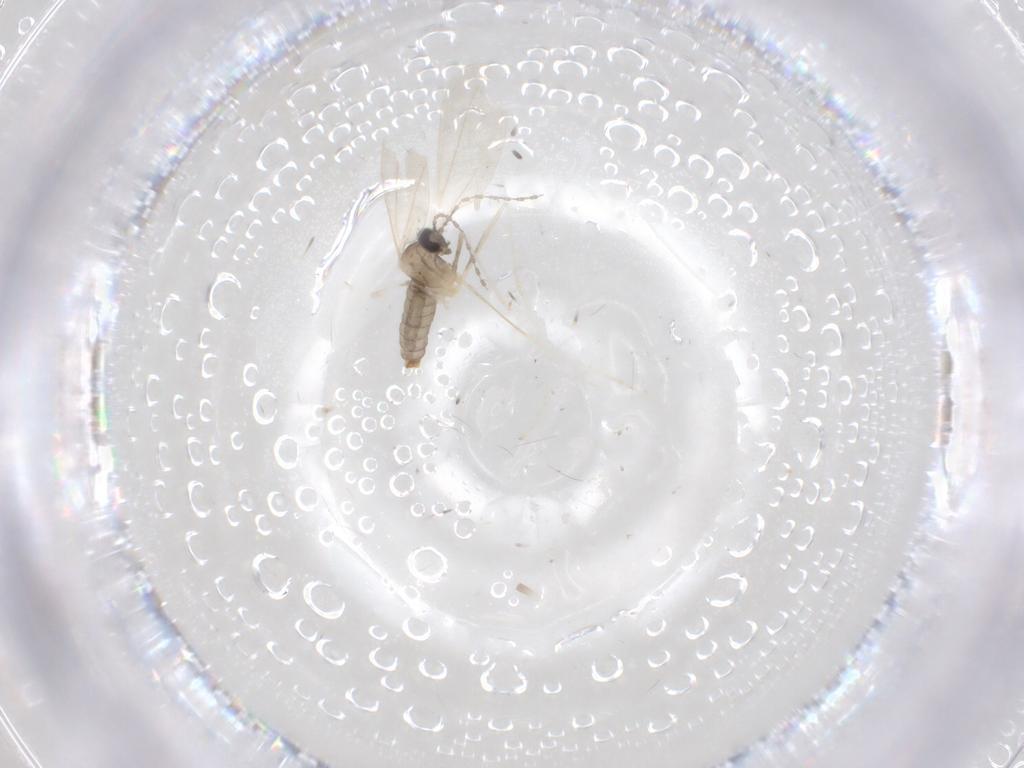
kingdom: Animalia
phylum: Arthropoda
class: Insecta
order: Diptera
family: Cecidomyiidae
